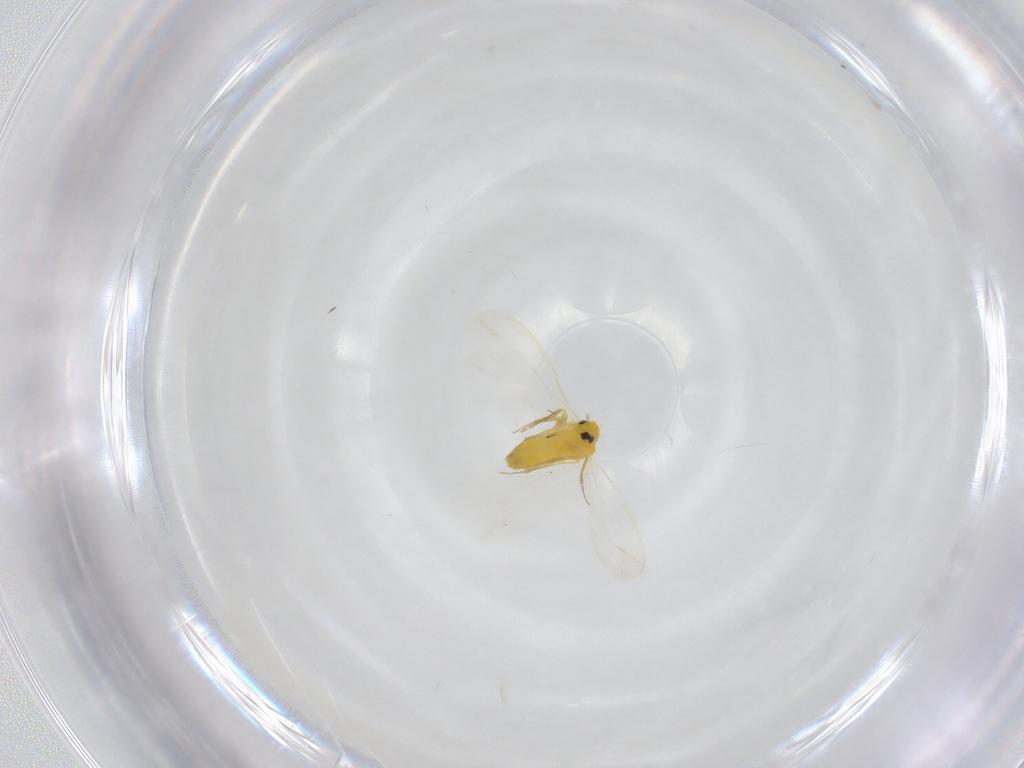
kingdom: Animalia
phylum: Arthropoda
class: Insecta
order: Hemiptera
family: Aleyrodidae
